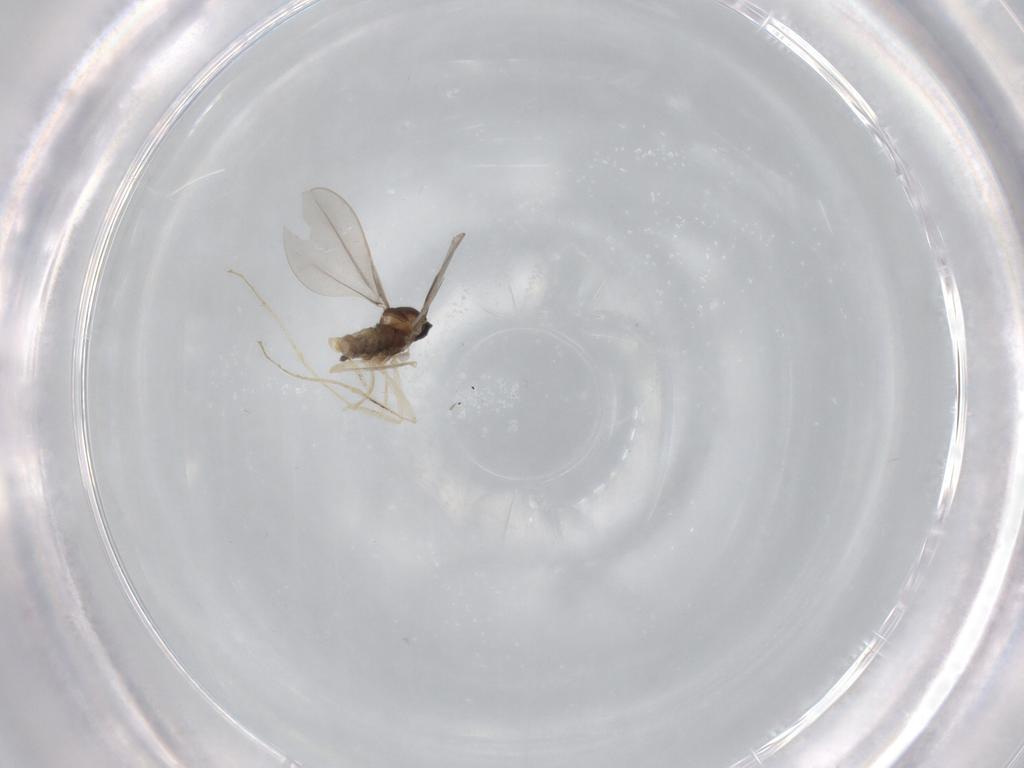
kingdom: Animalia
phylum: Arthropoda
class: Insecta
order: Diptera
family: Cecidomyiidae
